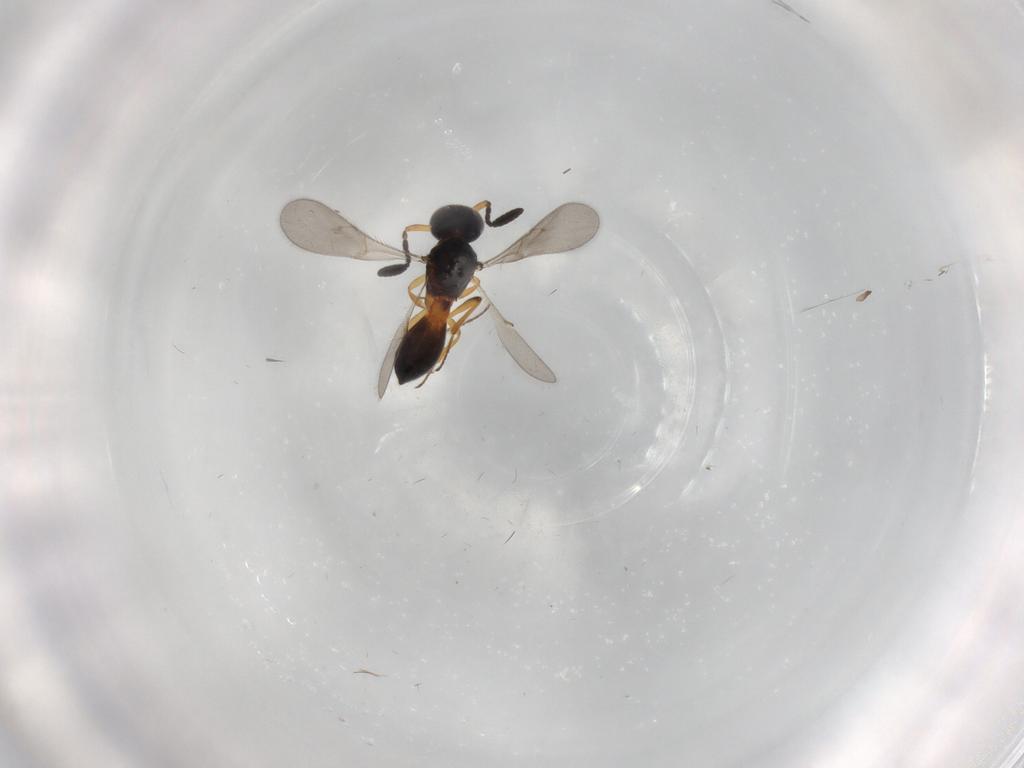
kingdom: Animalia
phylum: Arthropoda
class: Insecta
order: Hymenoptera
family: Scelionidae
